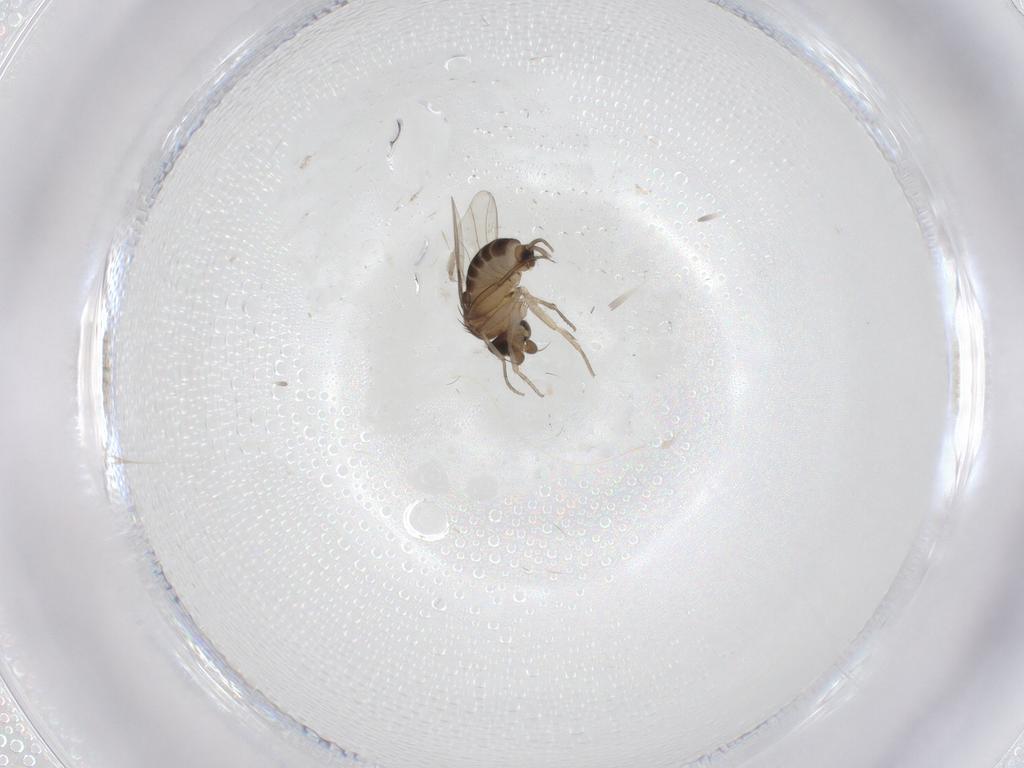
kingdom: Animalia
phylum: Arthropoda
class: Insecta
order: Diptera
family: Phoridae
